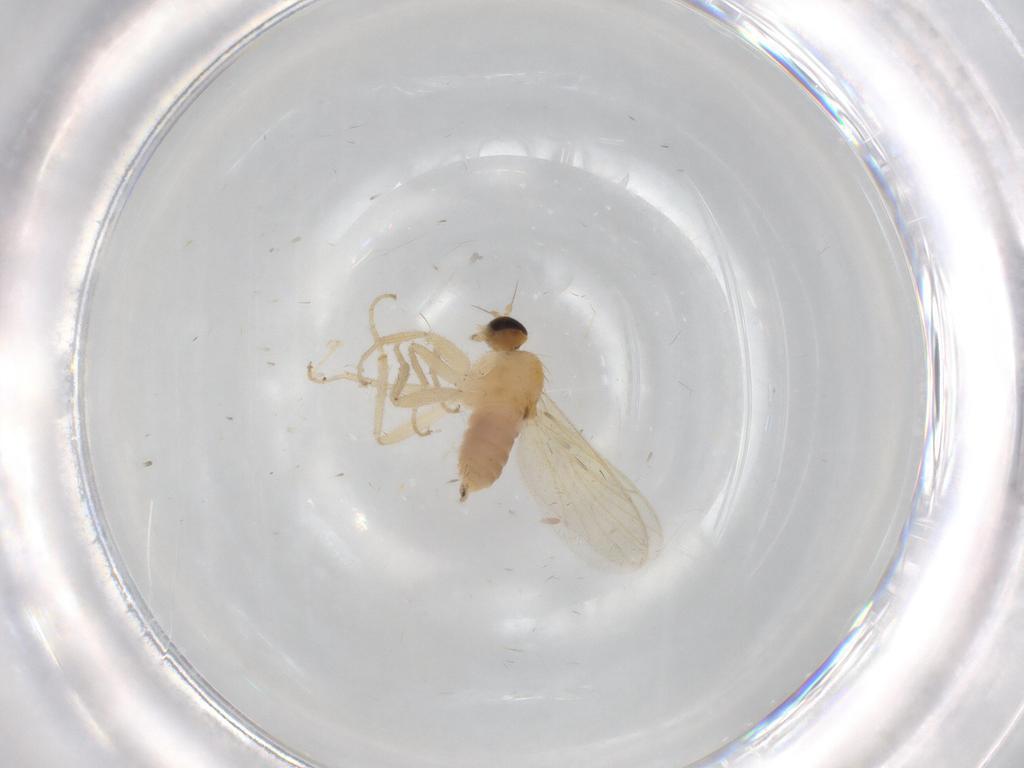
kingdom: Animalia
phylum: Arthropoda
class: Insecta
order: Diptera
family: Hybotidae
